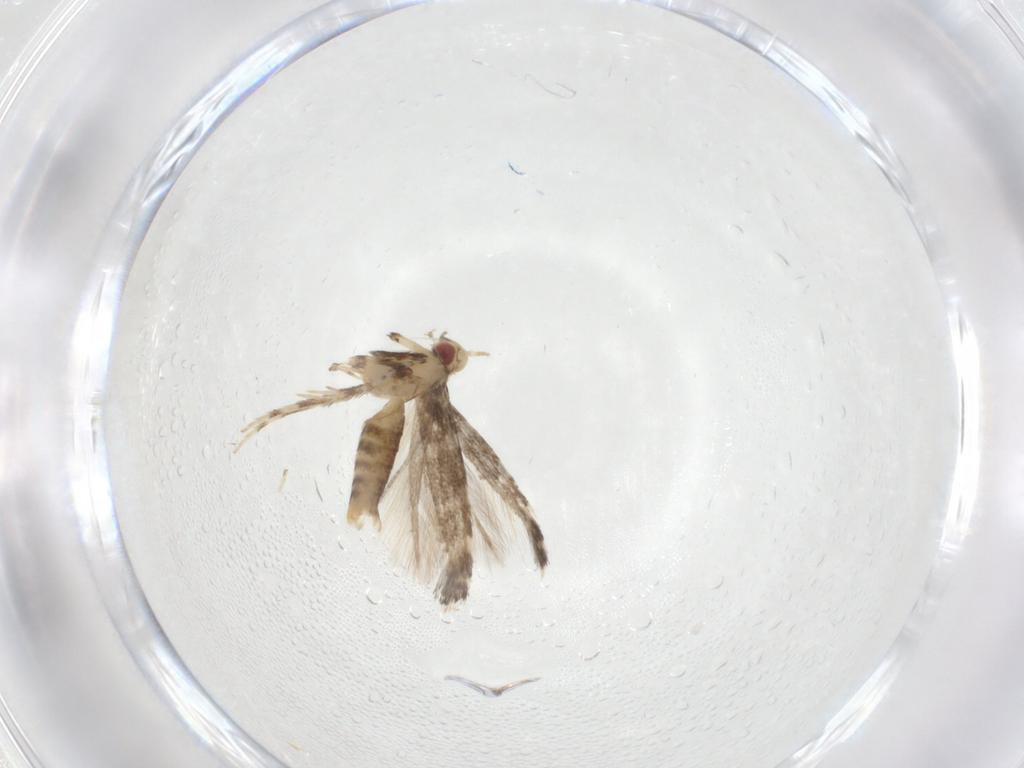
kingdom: Animalia
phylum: Arthropoda
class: Insecta
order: Lepidoptera
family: Gracillariidae
